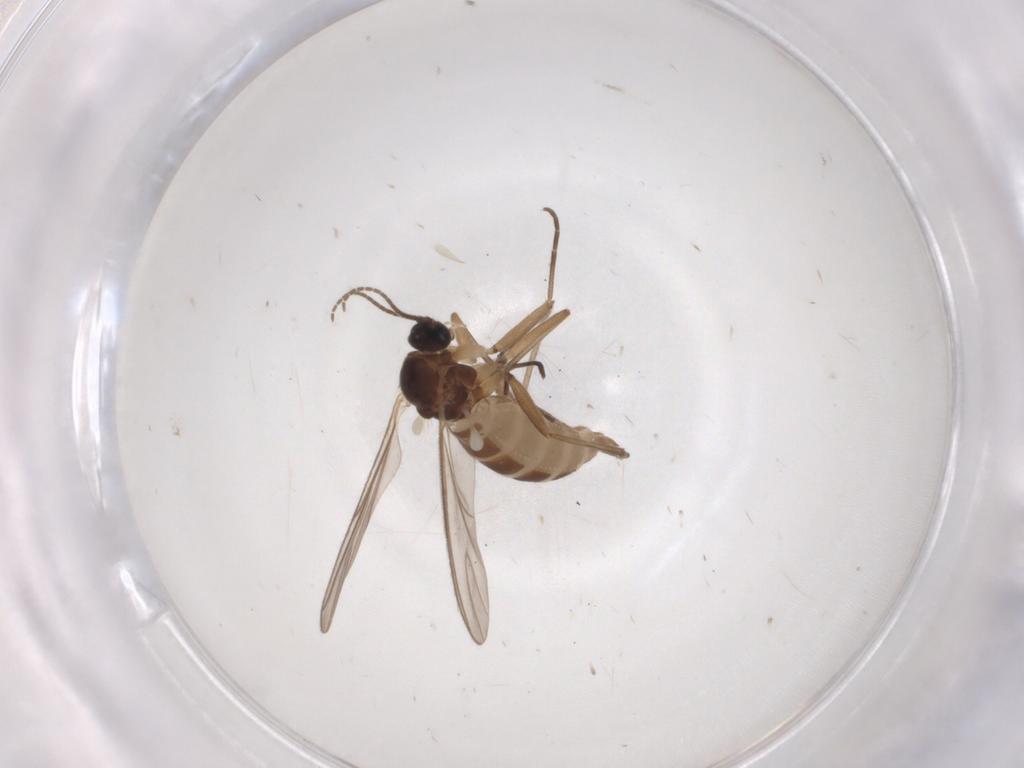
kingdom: Animalia
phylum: Arthropoda
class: Insecta
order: Diptera
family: Sciaridae
